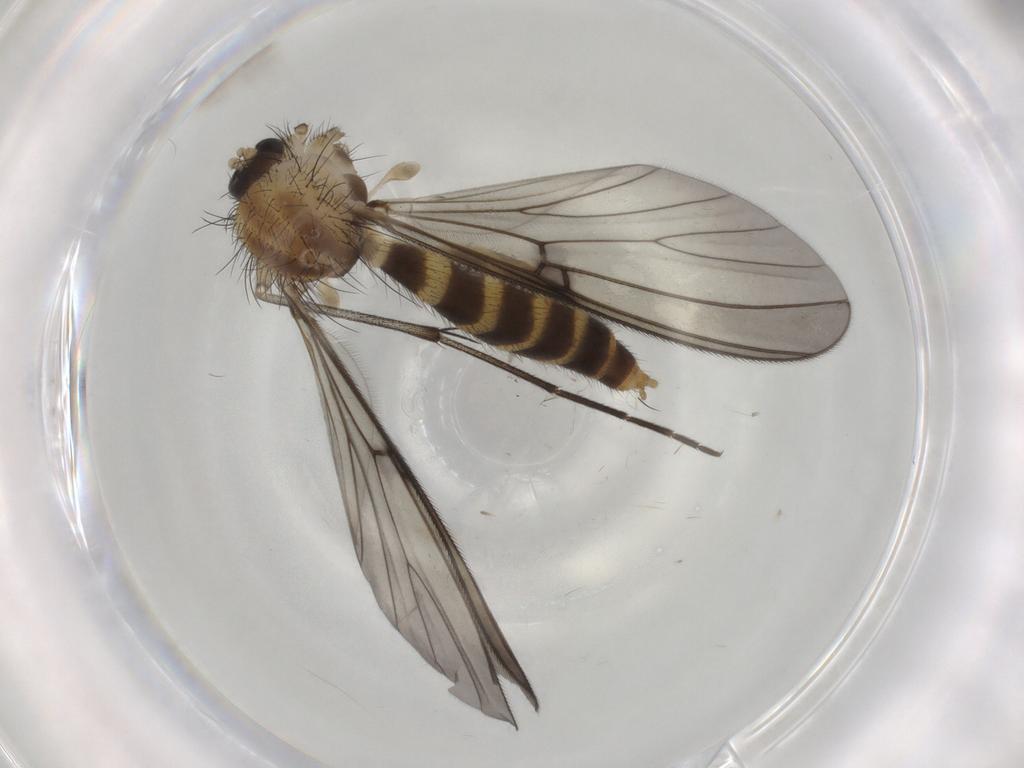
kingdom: Animalia
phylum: Arthropoda
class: Insecta
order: Diptera
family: Mycetophilidae
